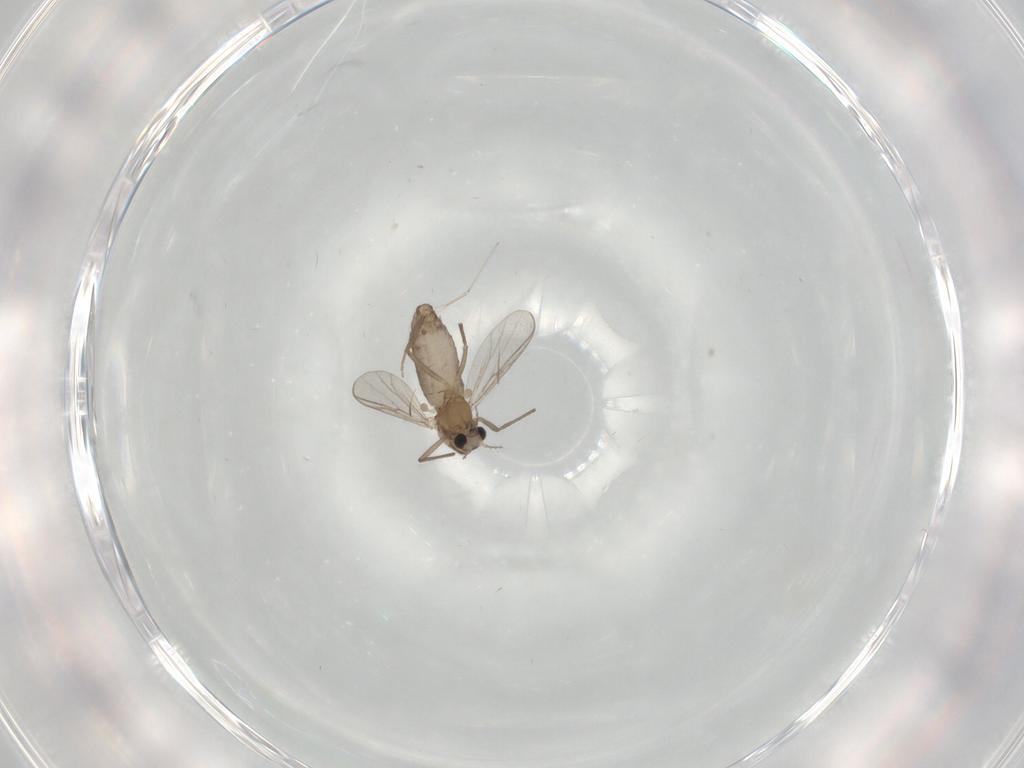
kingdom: Animalia
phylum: Arthropoda
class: Insecta
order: Diptera
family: Chironomidae
